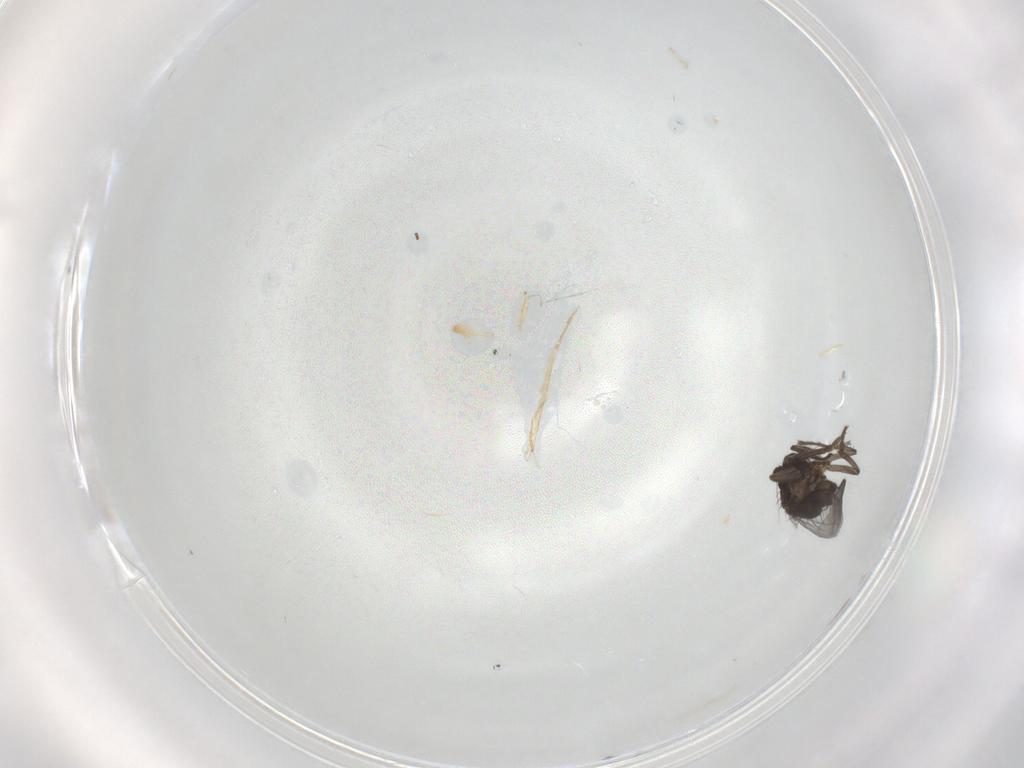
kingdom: Animalia
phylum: Arthropoda
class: Insecta
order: Diptera
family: Sphaeroceridae
